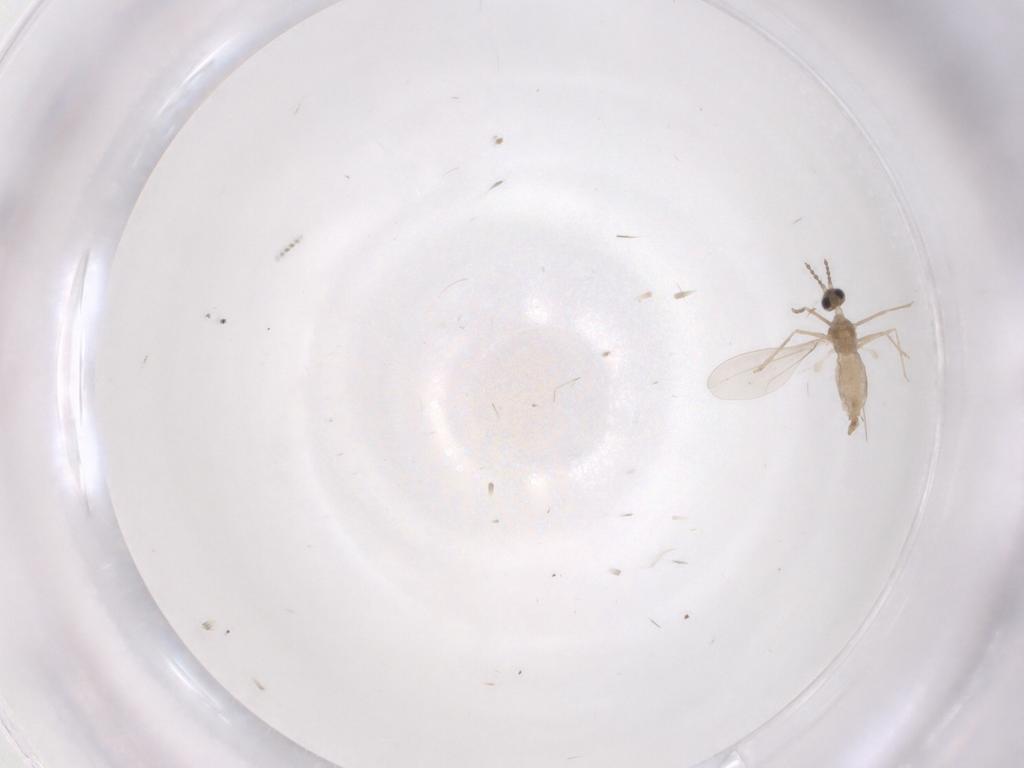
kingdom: Animalia
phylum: Arthropoda
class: Insecta
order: Diptera
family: Cecidomyiidae
